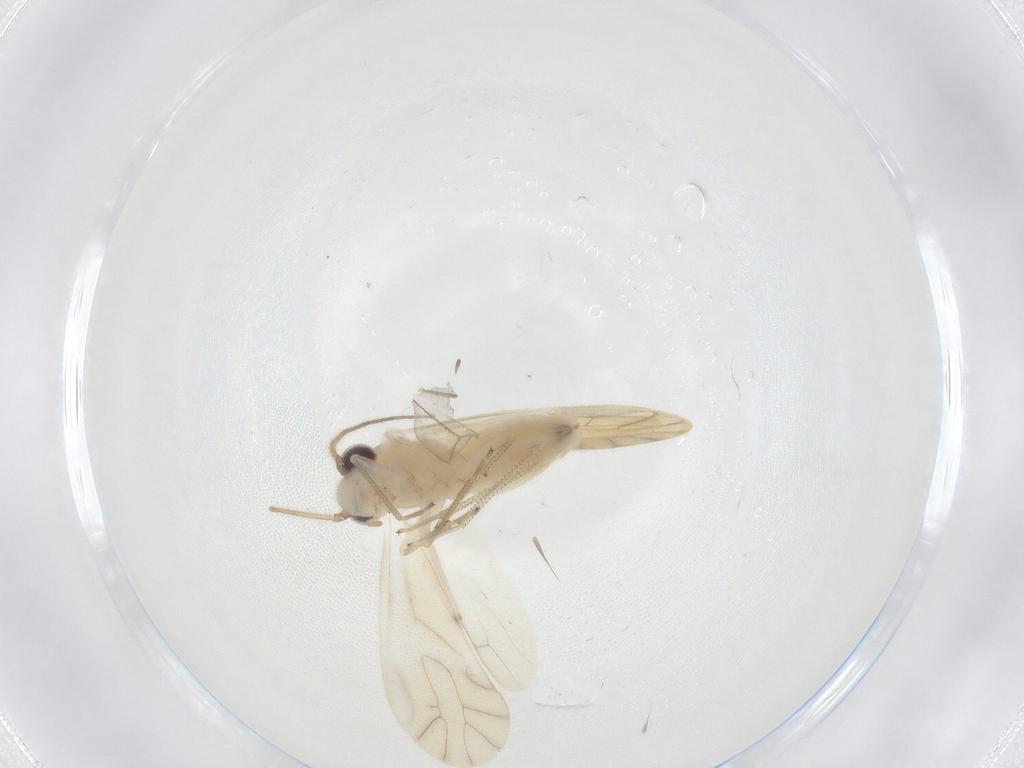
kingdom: Animalia
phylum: Arthropoda
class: Insecta
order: Psocodea
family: Caeciliusidae
